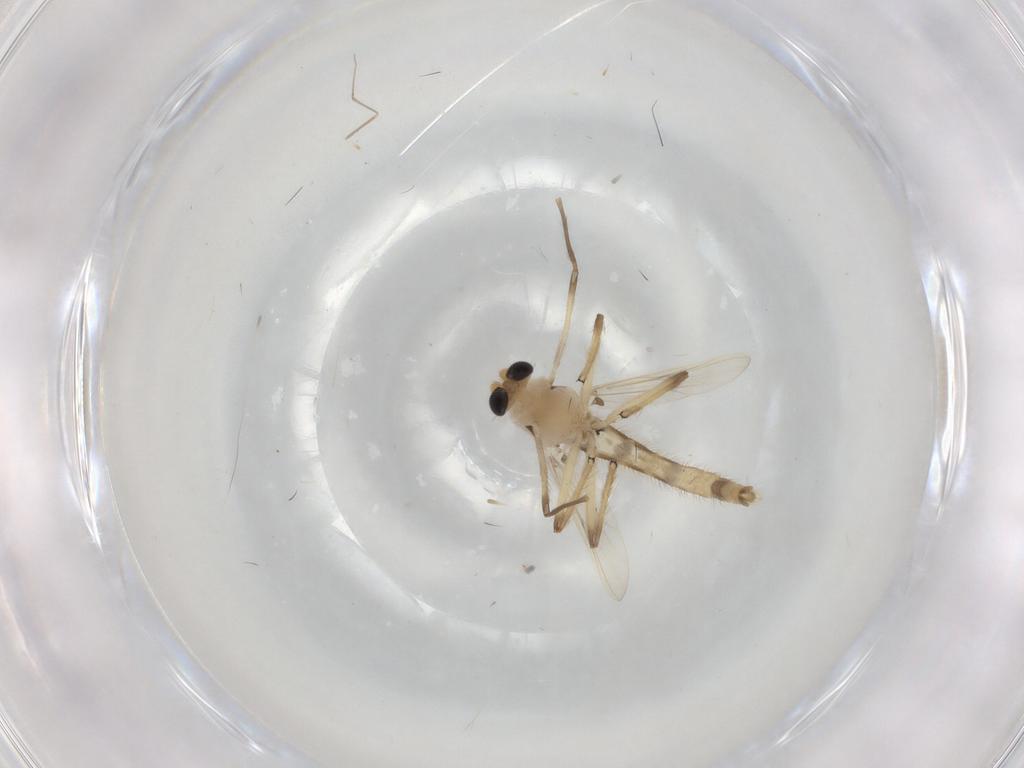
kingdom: Animalia
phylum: Arthropoda
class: Insecta
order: Diptera
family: Chironomidae
